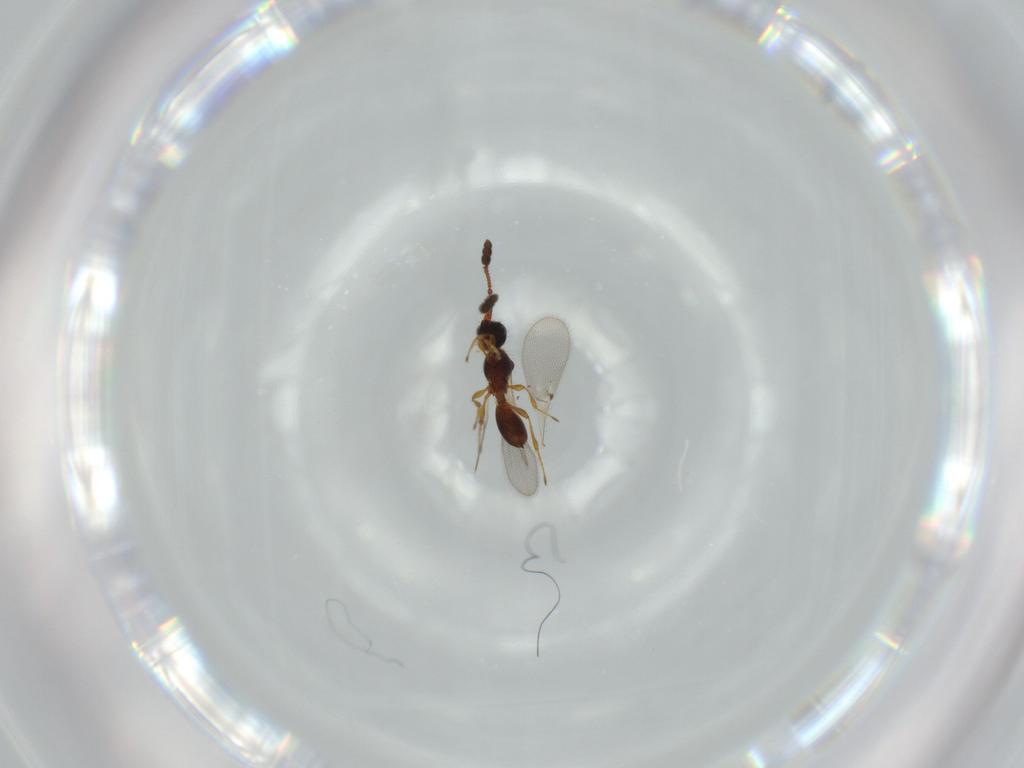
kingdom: Animalia
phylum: Arthropoda
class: Insecta
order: Hymenoptera
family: Diapriidae
